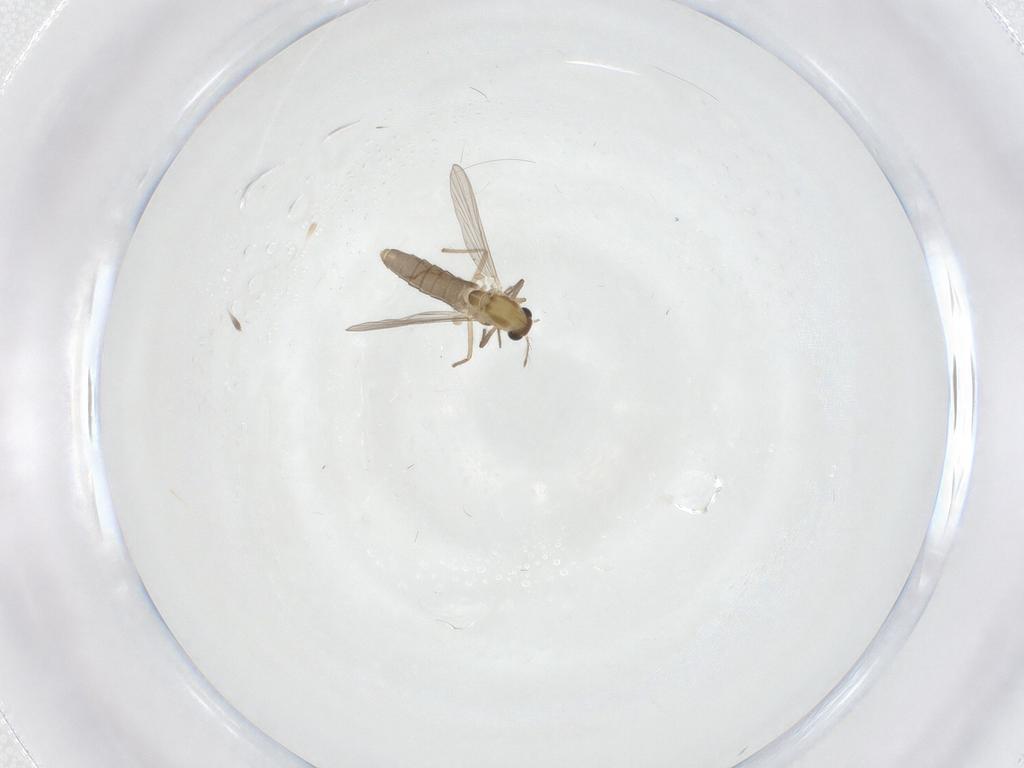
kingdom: Animalia
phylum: Arthropoda
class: Insecta
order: Diptera
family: Chironomidae
